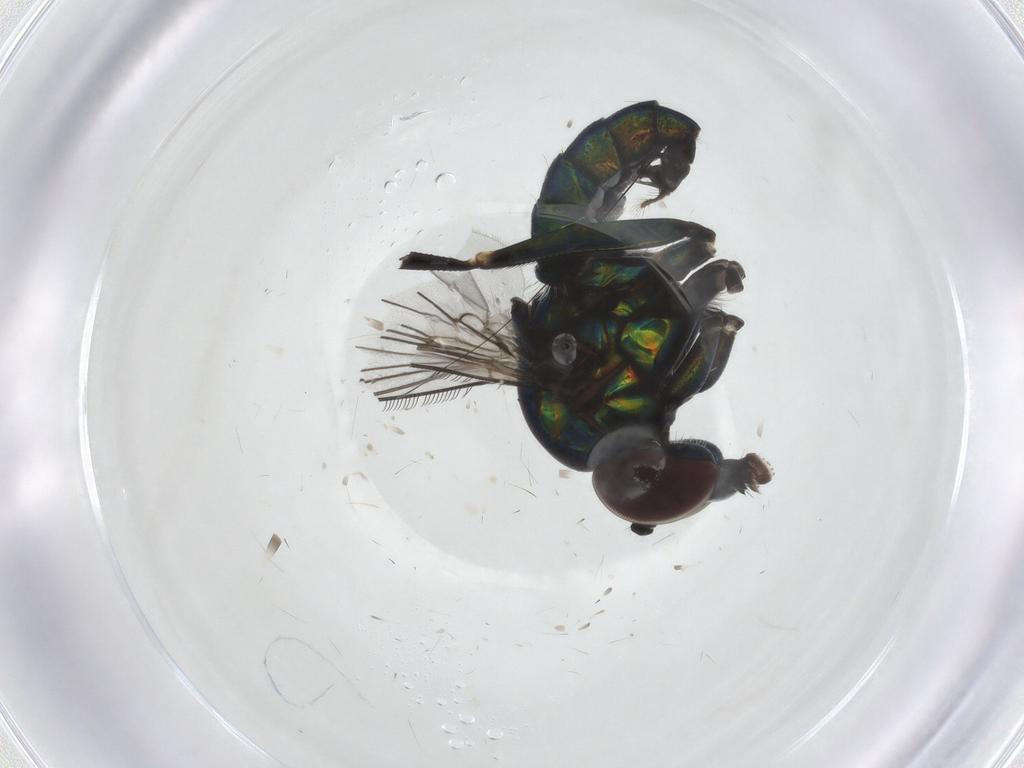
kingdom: Animalia
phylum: Arthropoda
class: Insecta
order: Diptera
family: Dolichopodidae
